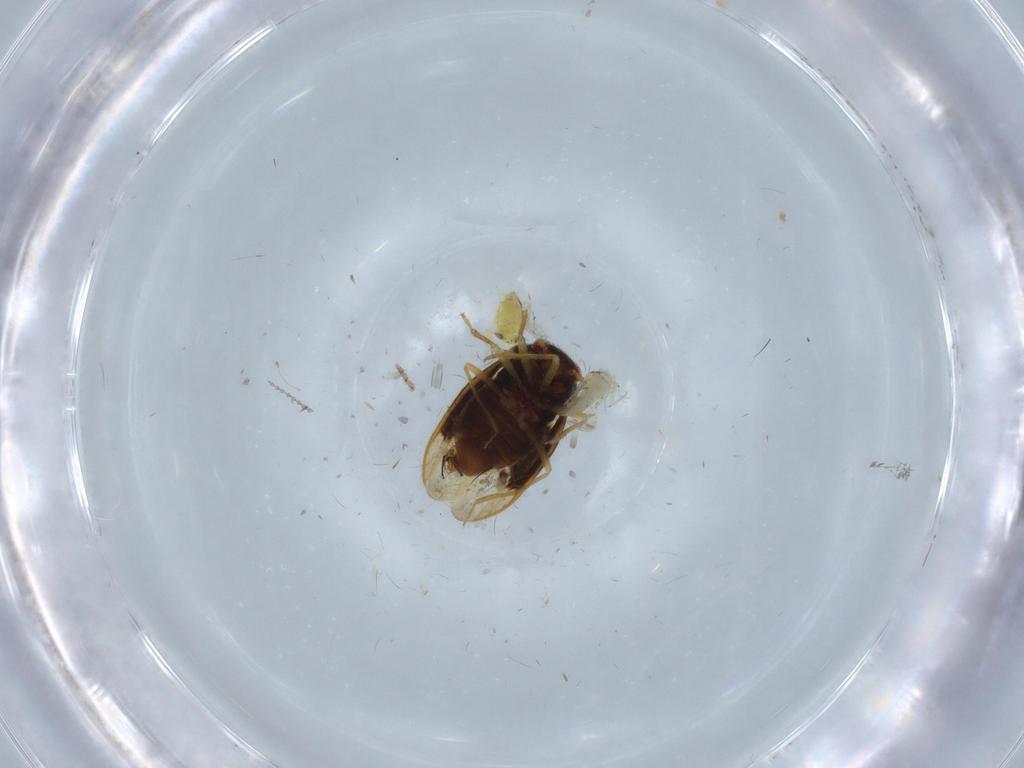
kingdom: Animalia
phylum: Arthropoda
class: Insecta
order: Hemiptera
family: Schizopteridae
